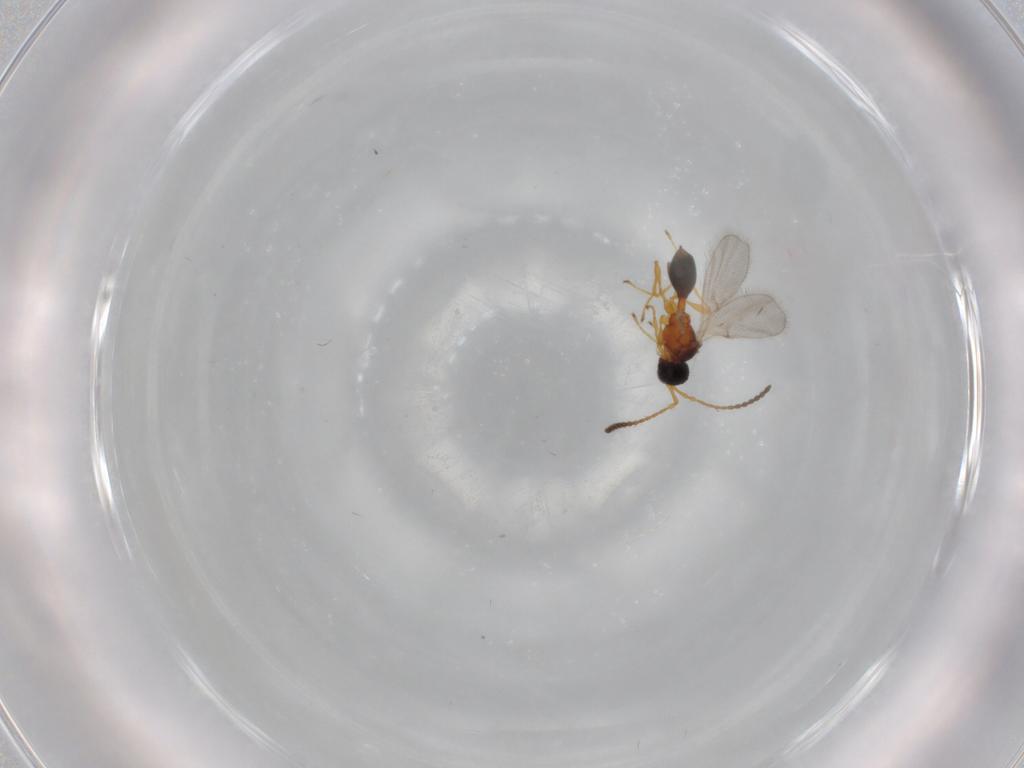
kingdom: Animalia
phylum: Arthropoda
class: Insecta
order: Hymenoptera
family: Diapriidae
